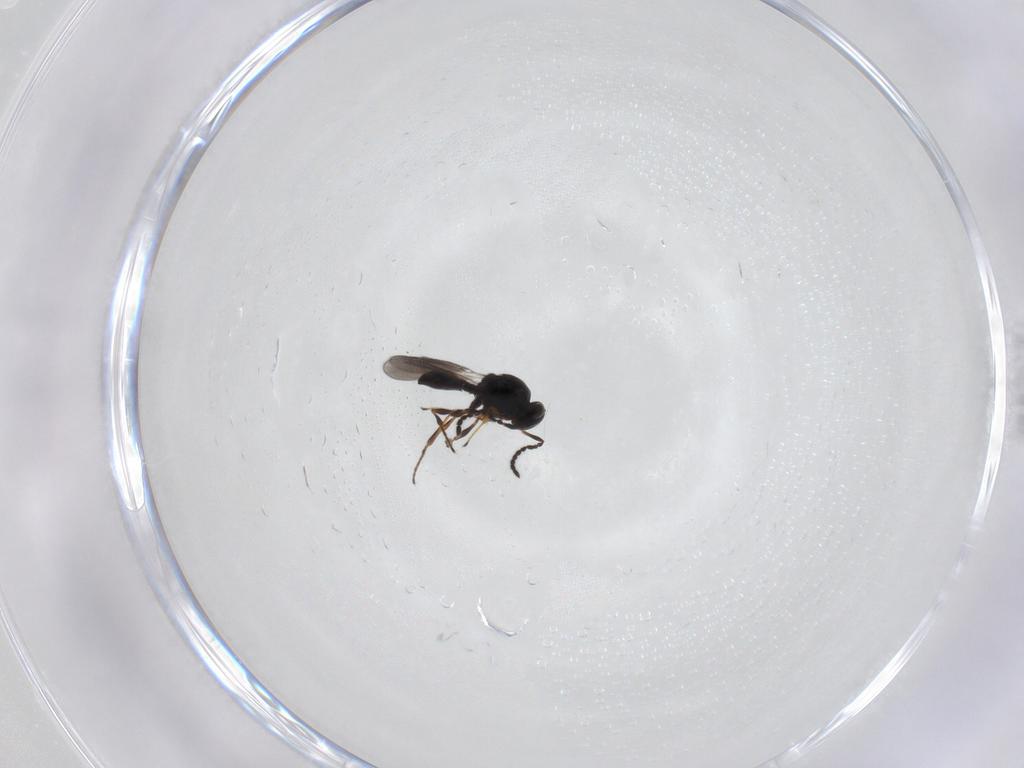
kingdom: Animalia
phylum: Arthropoda
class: Insecta
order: Hymenoptera
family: Platygastridae
